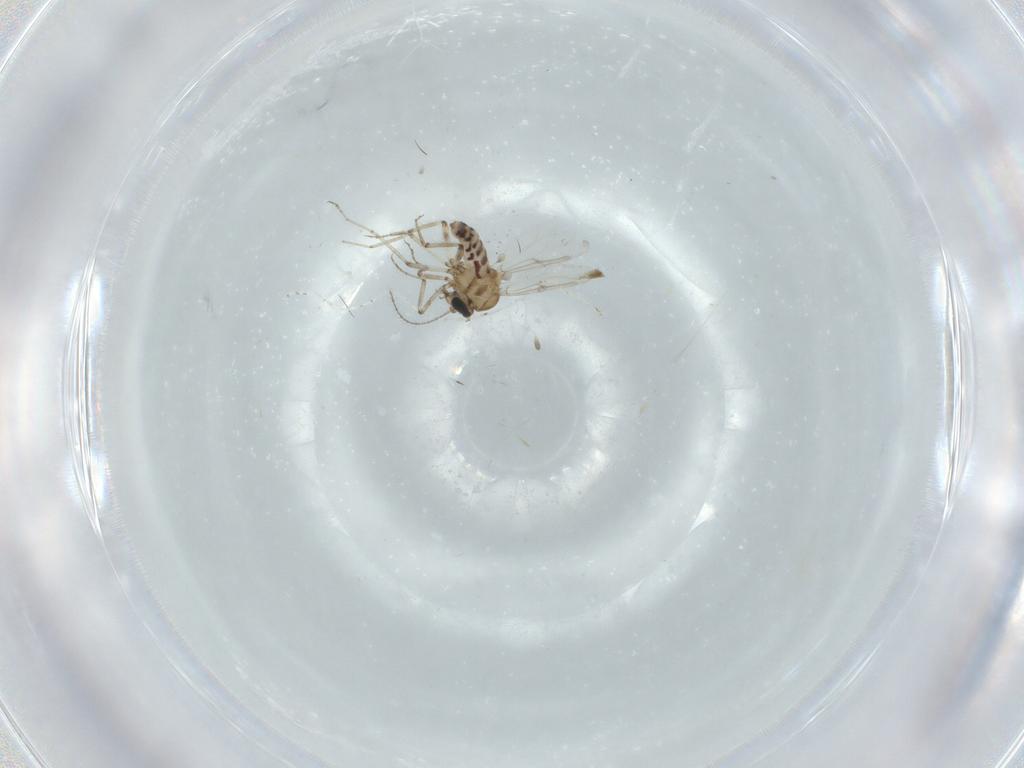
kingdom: Animalia
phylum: Arthropoda
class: Insecta
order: Diptera
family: Ceratopogonidae
